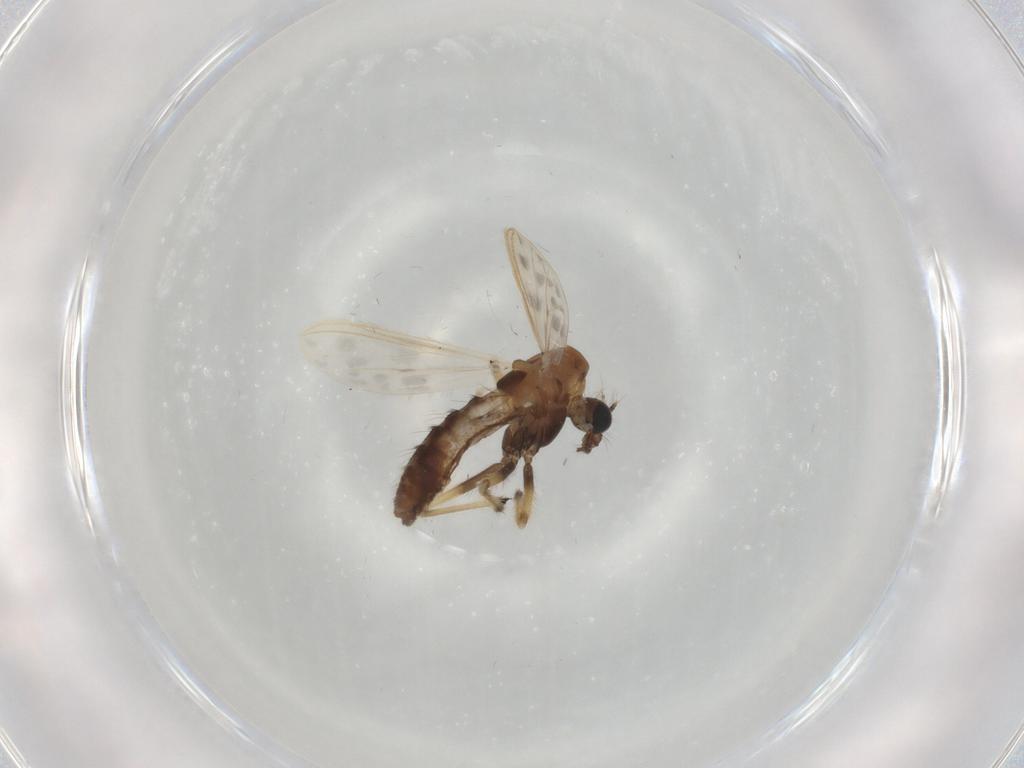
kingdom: Animalia
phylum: Arthropoda
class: Insecta
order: Diptera
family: Chironomidae
